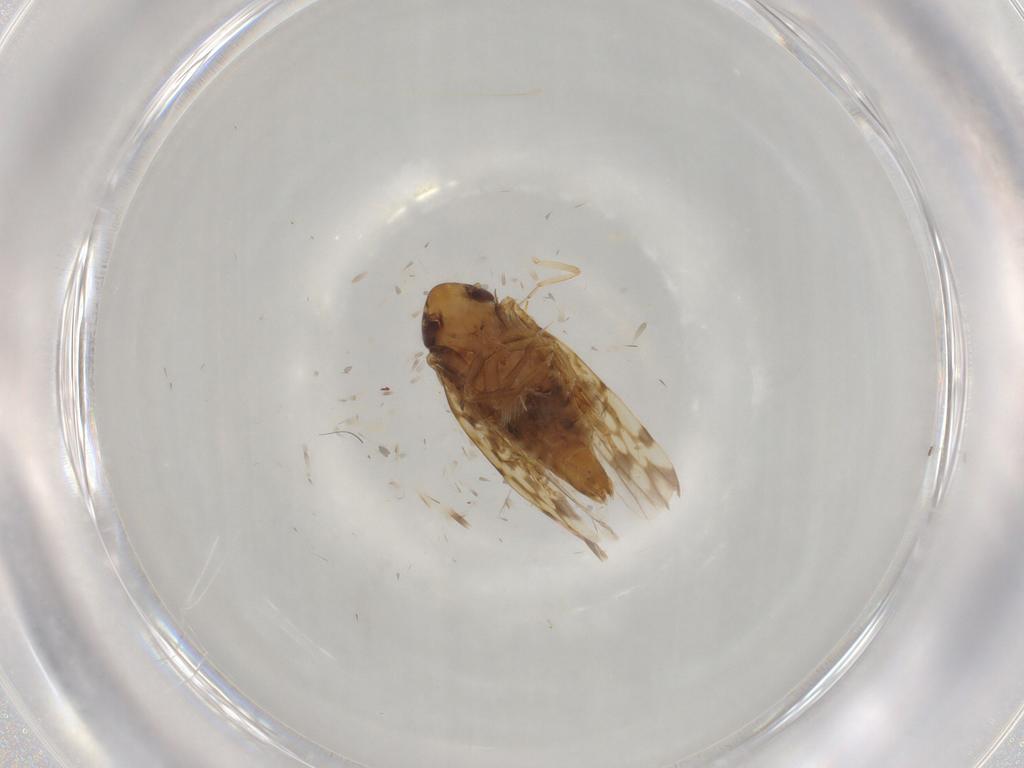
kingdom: Animalia
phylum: Arthropoda
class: Insecta
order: Hemiptera
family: Cicadellidae
